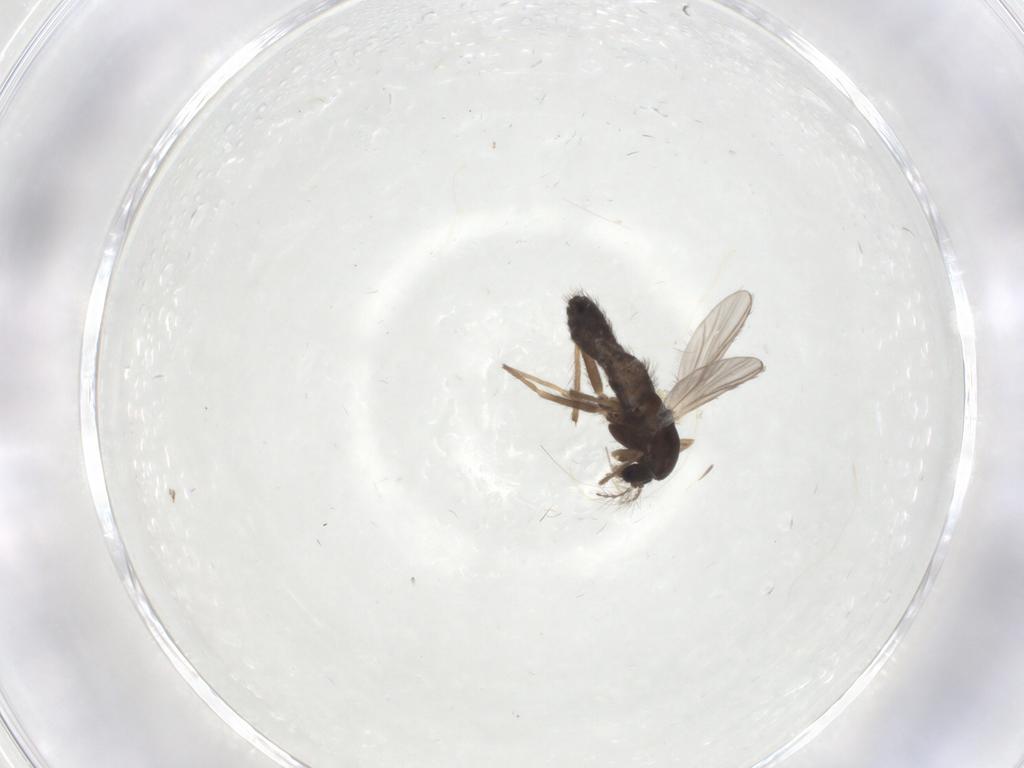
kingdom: Animalia
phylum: Arthropoda
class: Insecta
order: Diptera
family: Chironomidae
